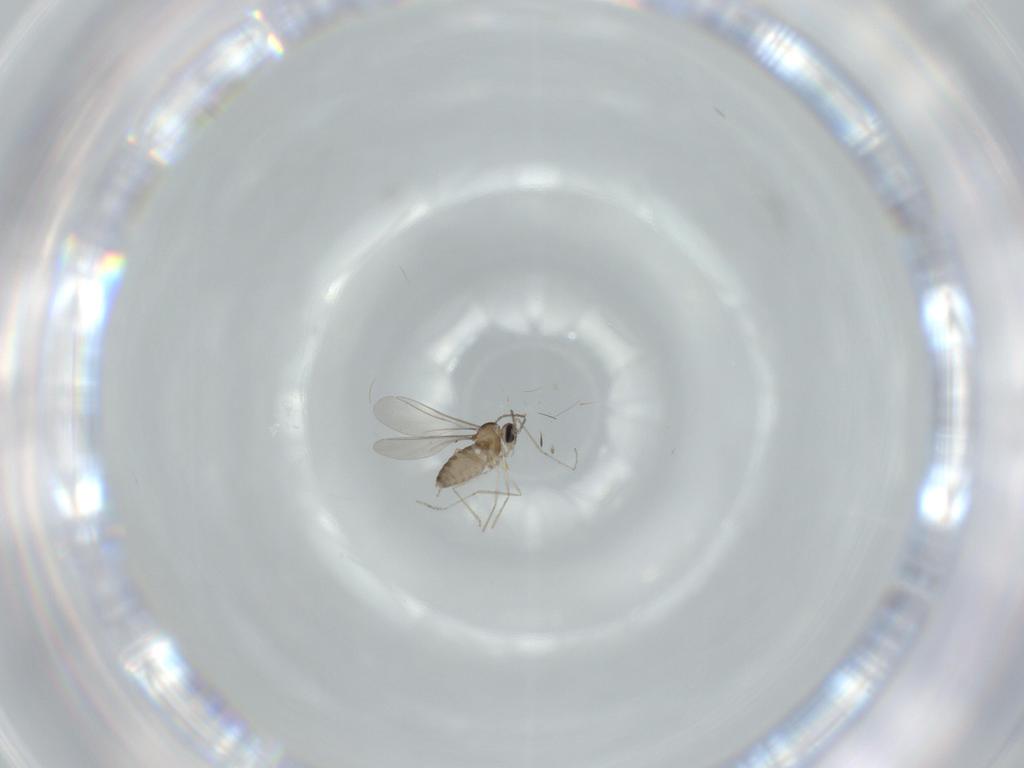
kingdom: Animalia
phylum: Arthropoda
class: Insecta
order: Diptera
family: Cecidomyiidae
